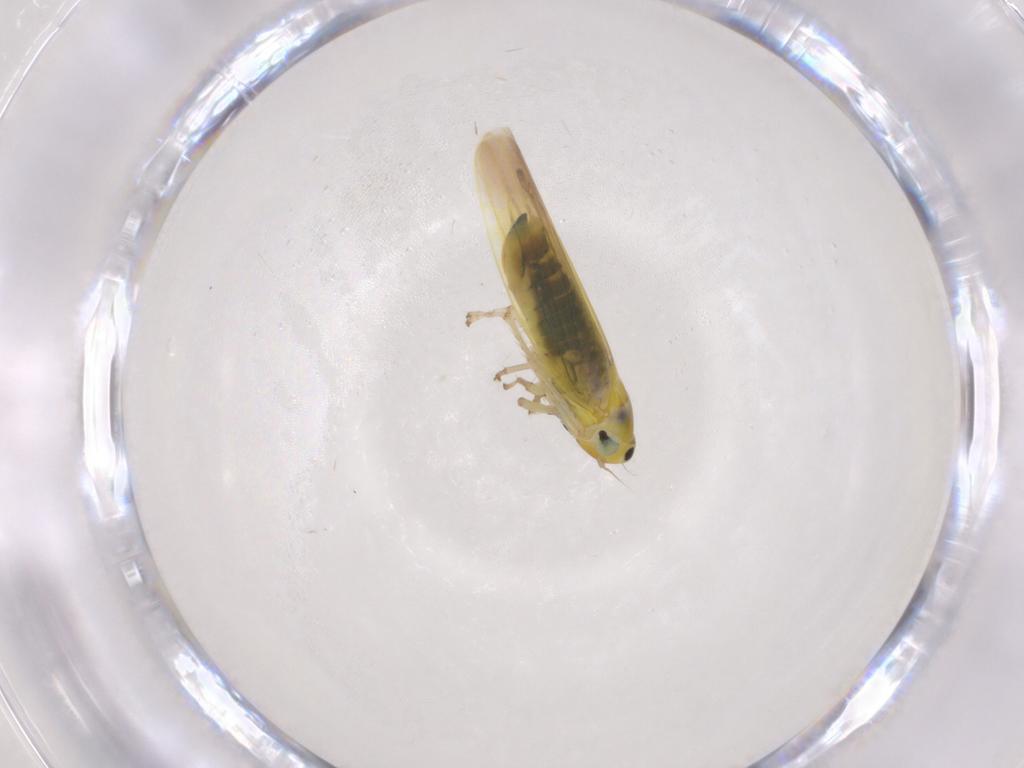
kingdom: Animalia
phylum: Arthropoda
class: Insecta
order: Hemiptera
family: Cicadellidae
